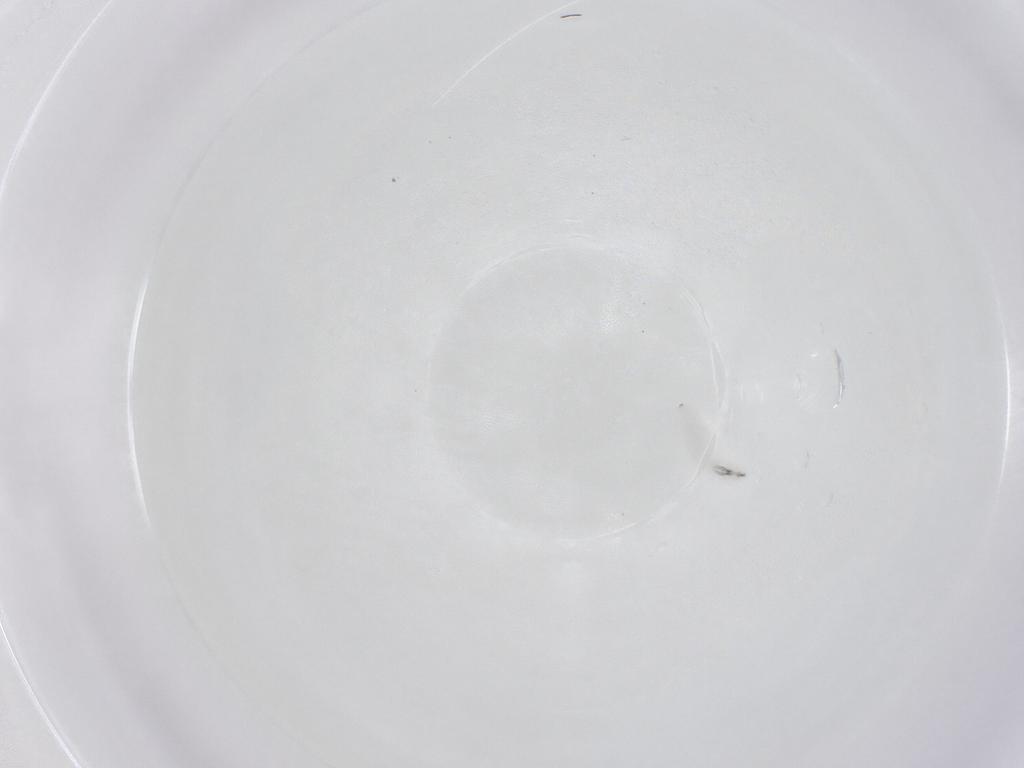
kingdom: Animalia
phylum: Arthropoda
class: Insecta
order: Diptera
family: Oestridae
